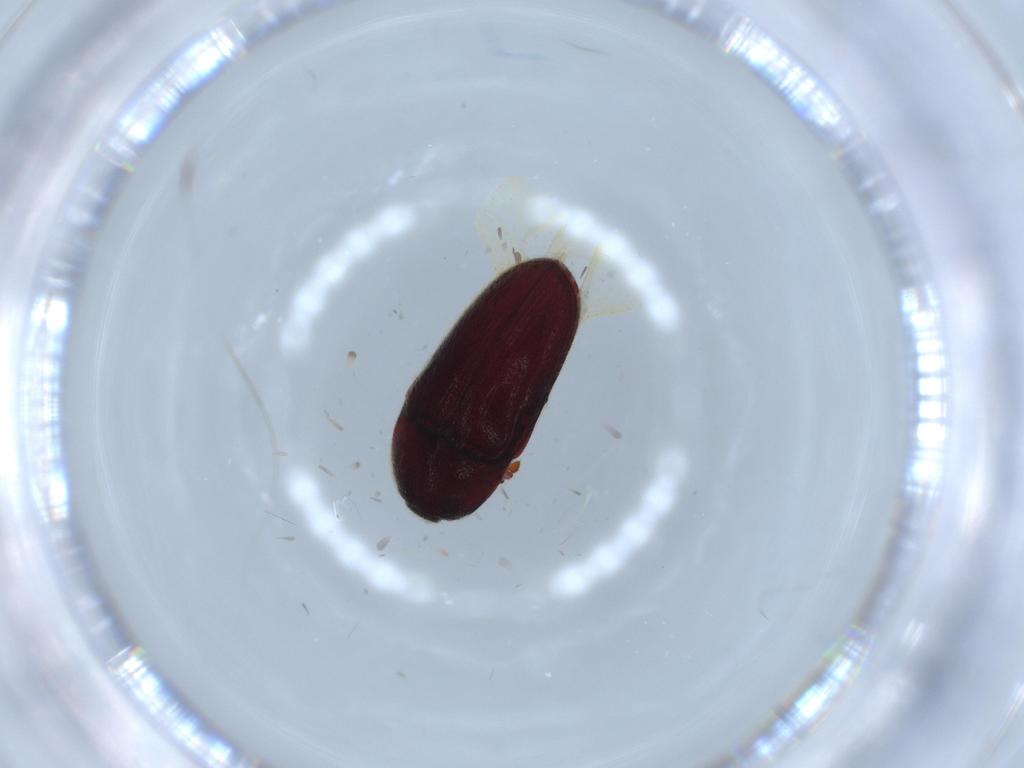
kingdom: Animalia
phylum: Arthropoda
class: Insecta
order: Coleoptera
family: Throscidae
